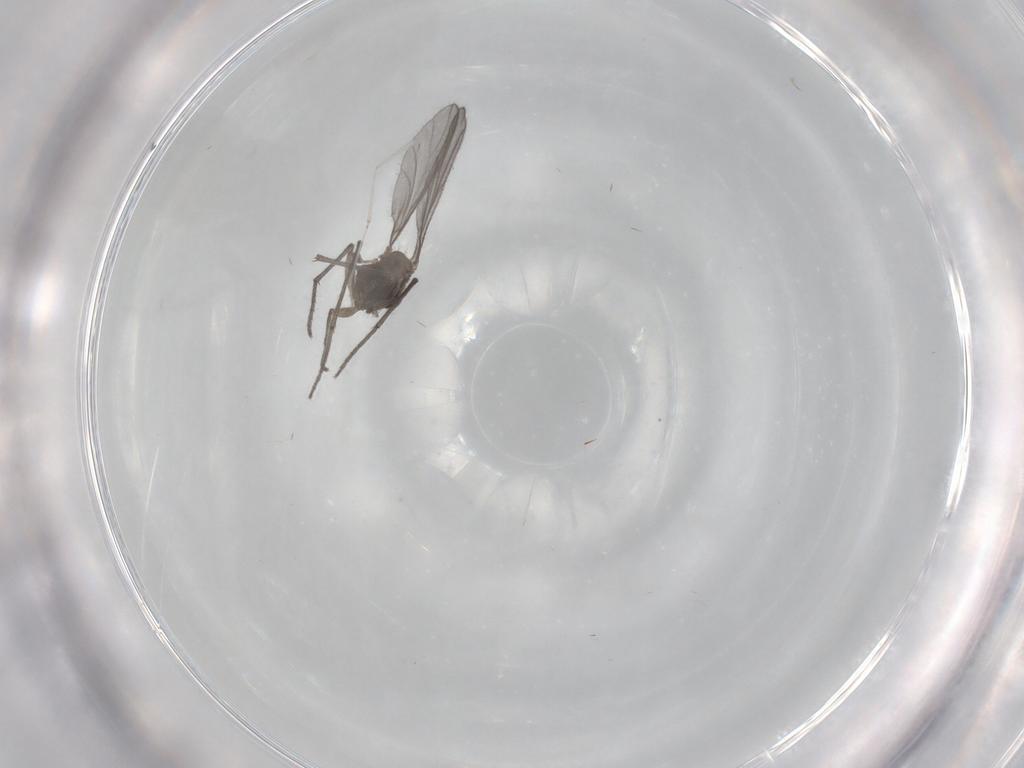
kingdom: Animalia
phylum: Arthropoda
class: Insecta
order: Diptera
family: Sciaridae
